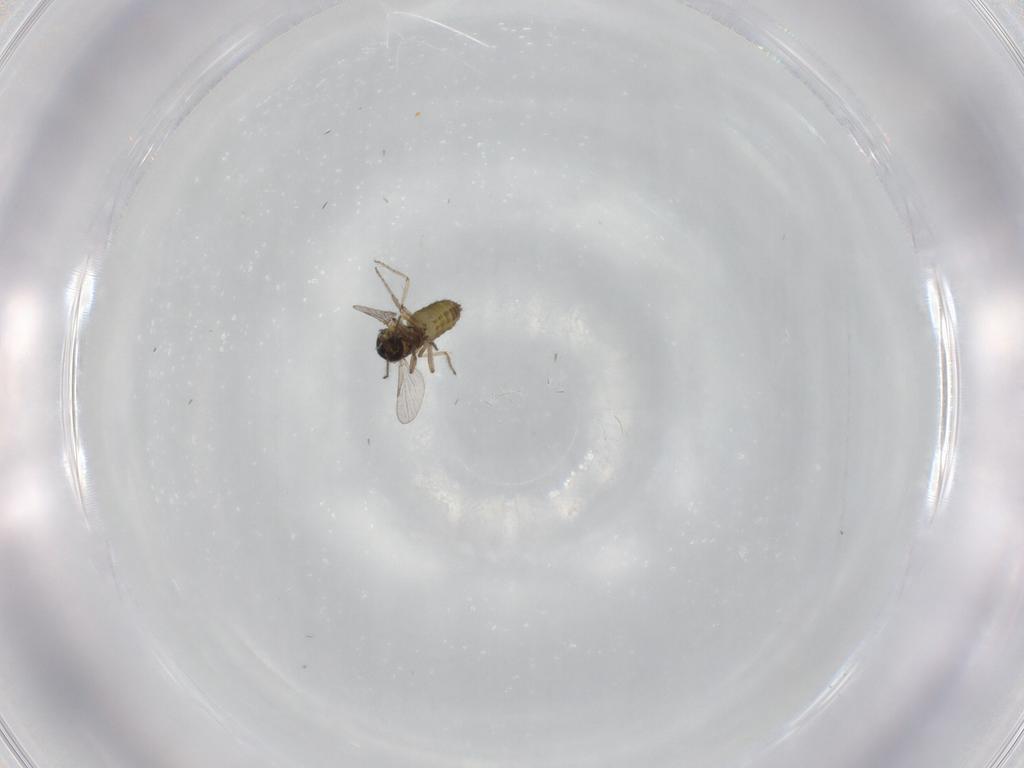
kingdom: Animalia
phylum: Arthropoda
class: Insecta
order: Diptera
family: Ceratopogonidae
